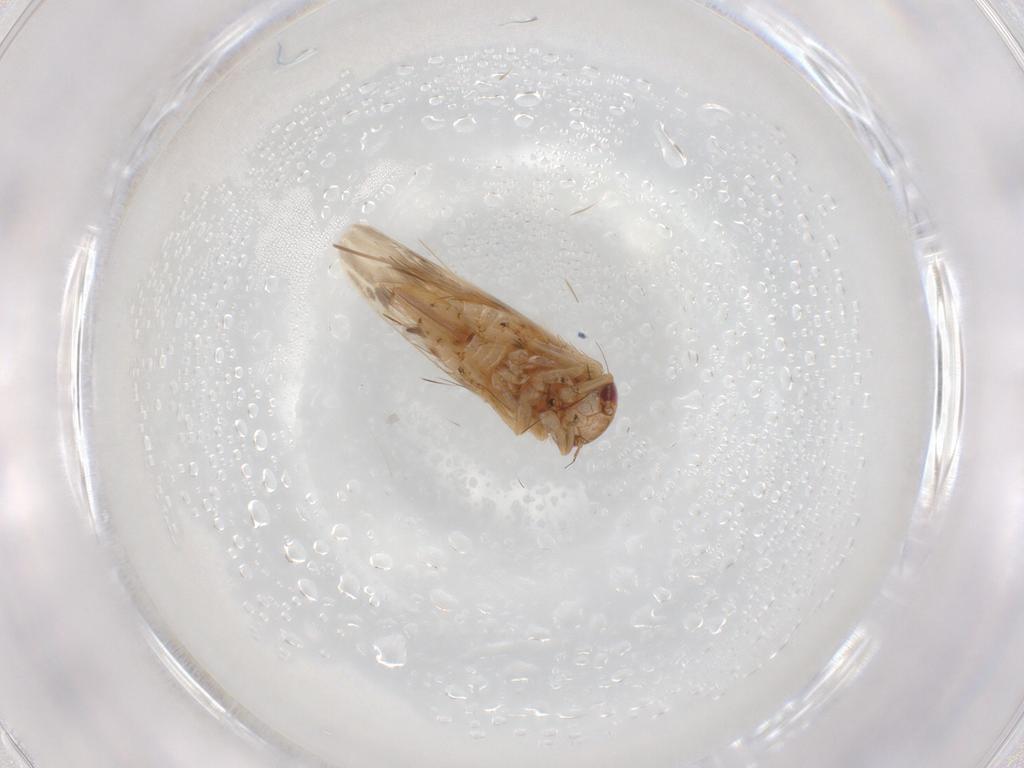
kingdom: Animalia
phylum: Arthropoda
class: Insecta
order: Hemiptera
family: Cicadellidae
